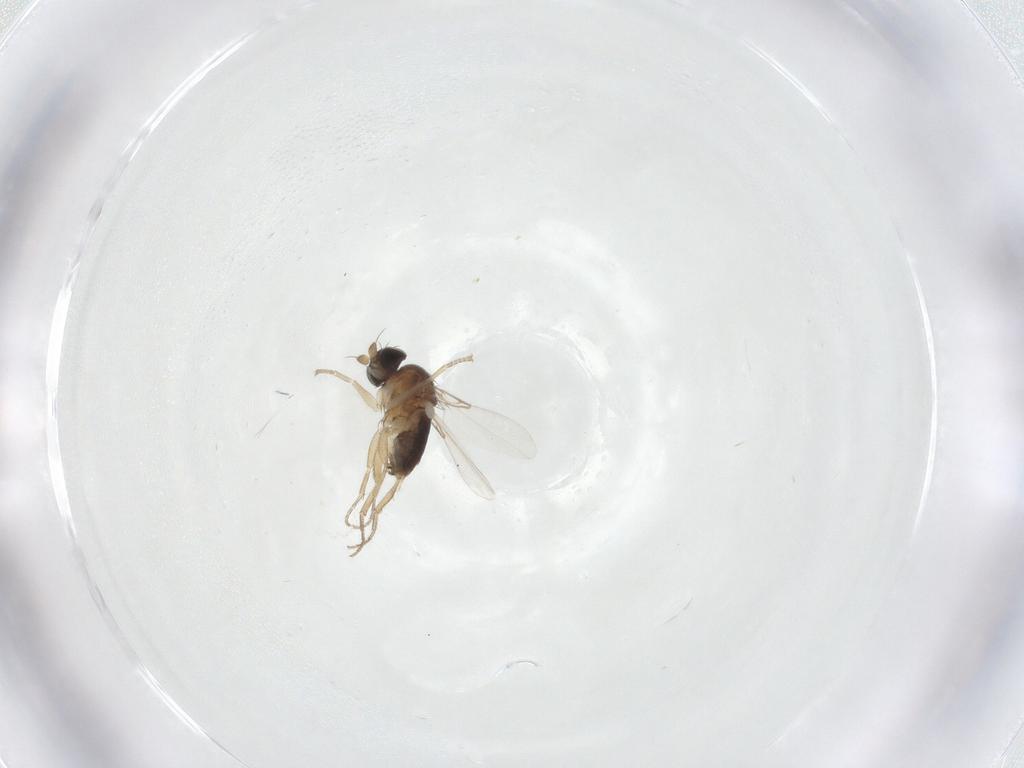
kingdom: Animalia
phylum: Arthropoda
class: Insecta
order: Diptera
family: Phoridae
